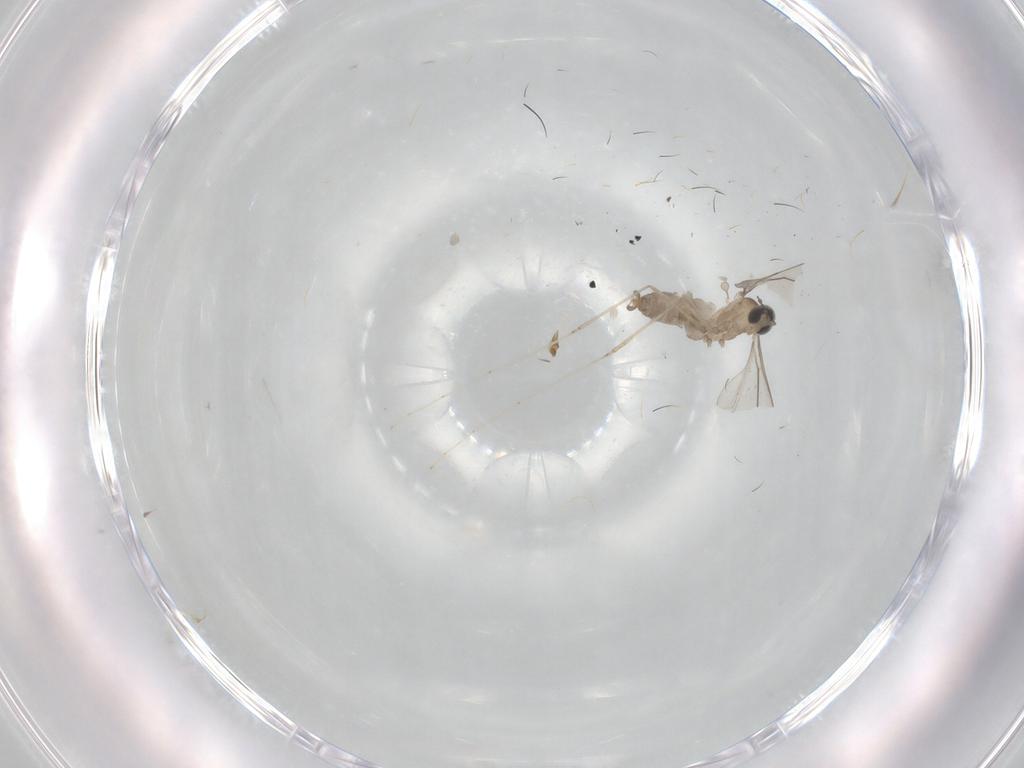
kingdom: Animalia
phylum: Arthropoda
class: Insecta
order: Diptera
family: Cecidomyiidae
